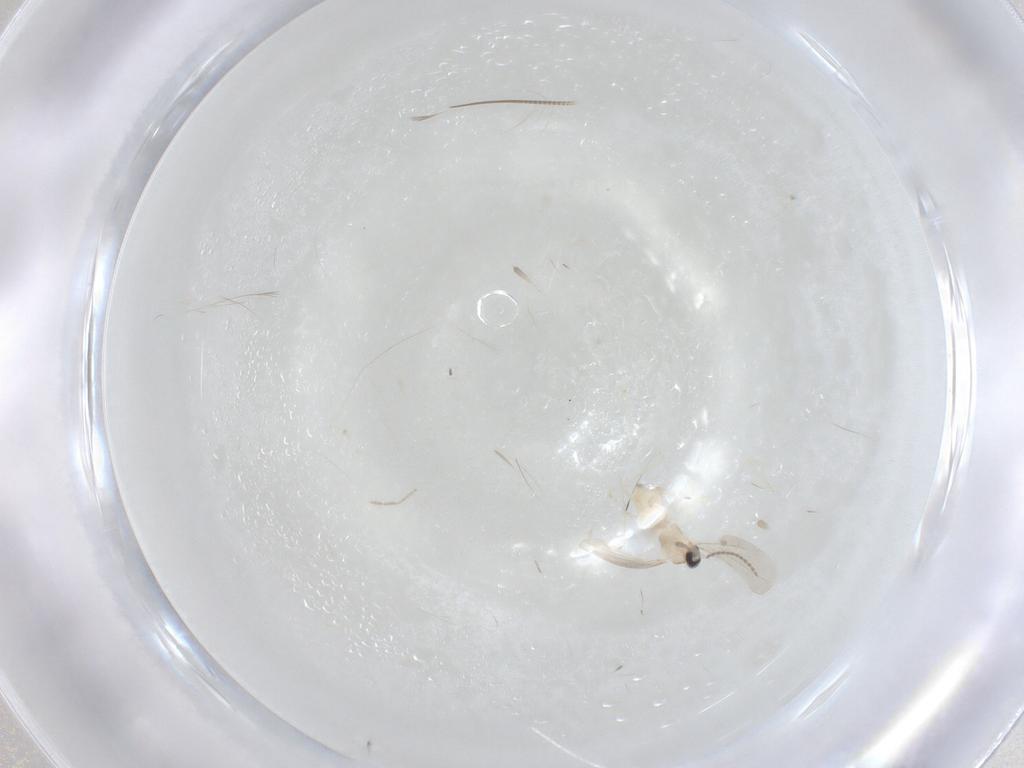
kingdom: Animalia
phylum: Arthropoda
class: Insecta
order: Diptera
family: Cecidomyiidae
